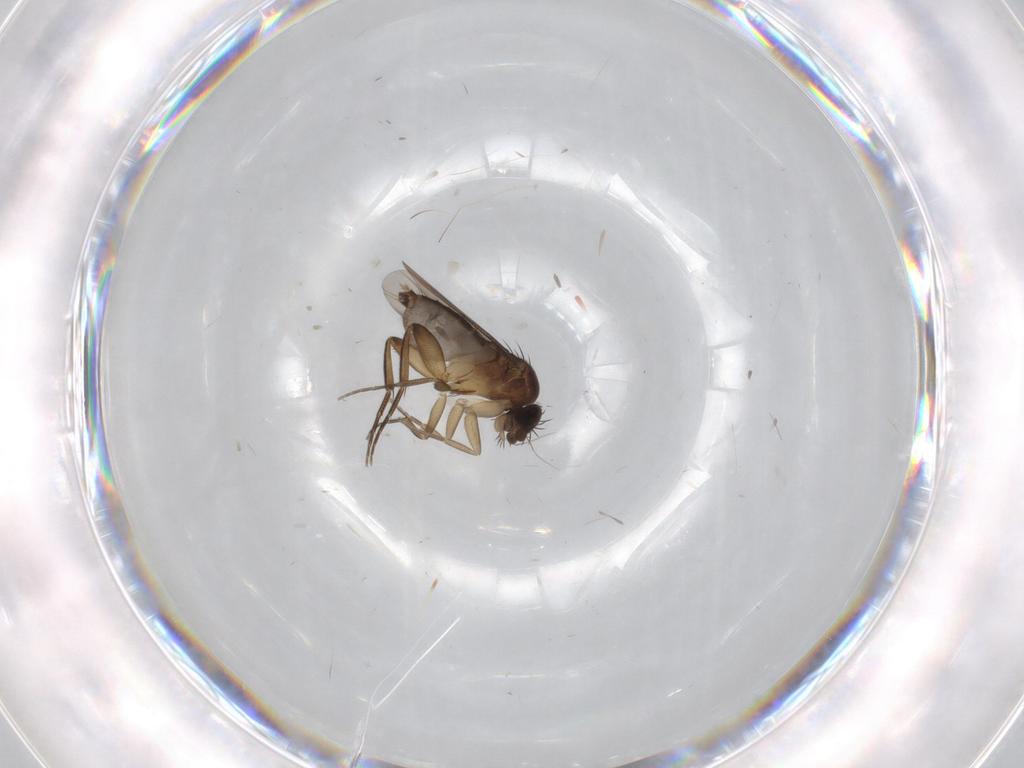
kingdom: Animalia
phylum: Arthropoda
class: Insecta
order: Diptera
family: Phoridae
